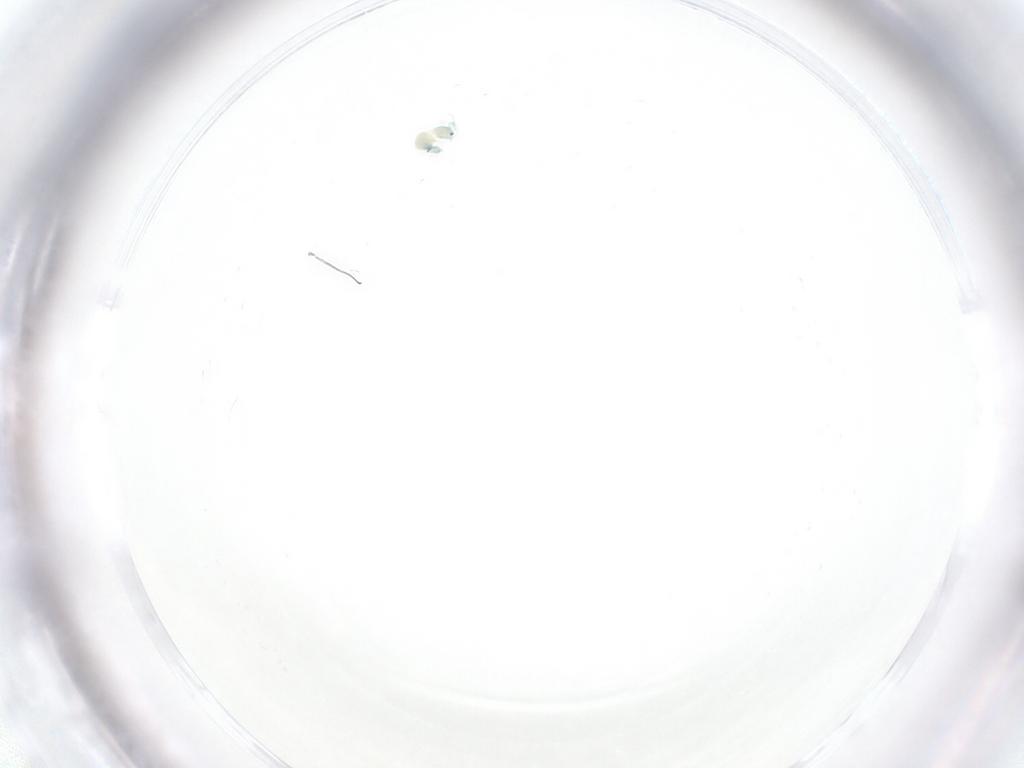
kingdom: Animalia
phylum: Arthropoda
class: Arachnida
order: Trombidiformes
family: Arrenuridae
